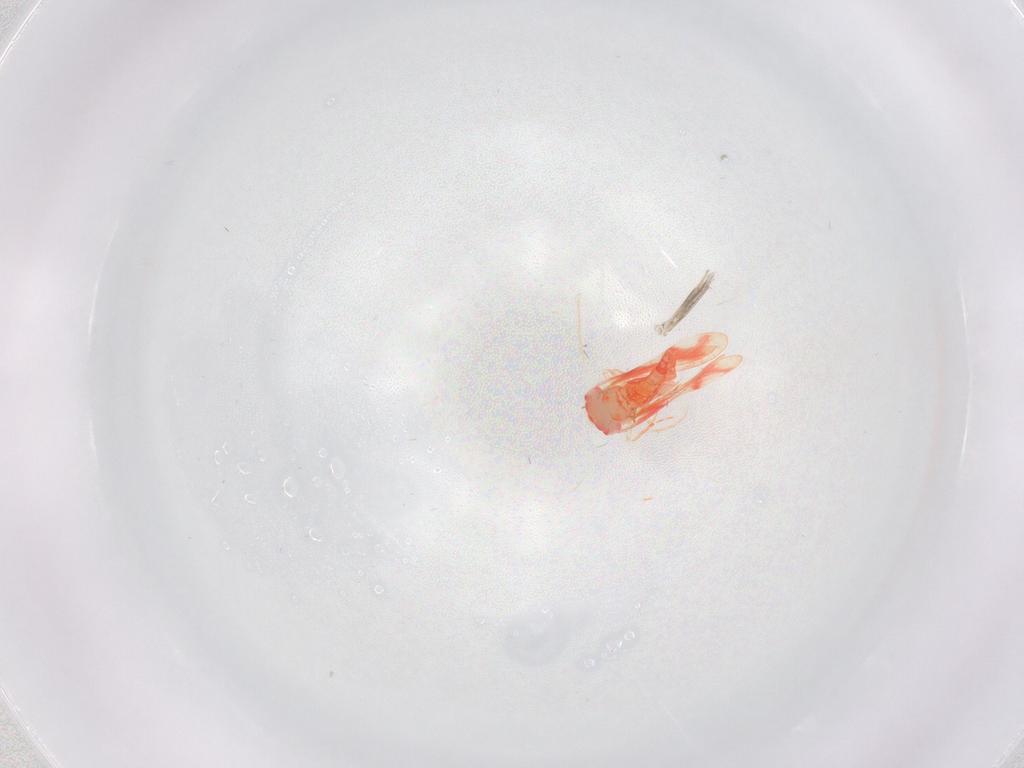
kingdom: Animalia
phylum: Arthropoda
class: Insecta
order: Hemiptera
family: Aleyrodidae
